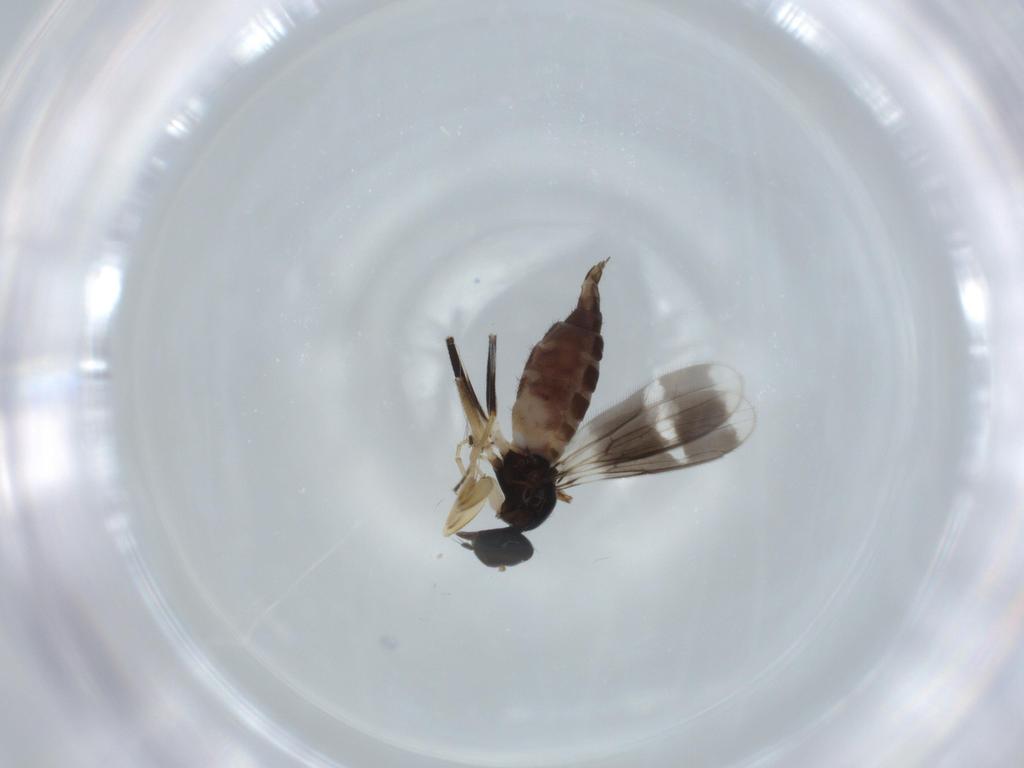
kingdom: Animalia
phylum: Arthropoda
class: Insecta
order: Diptera
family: Hybotidae
